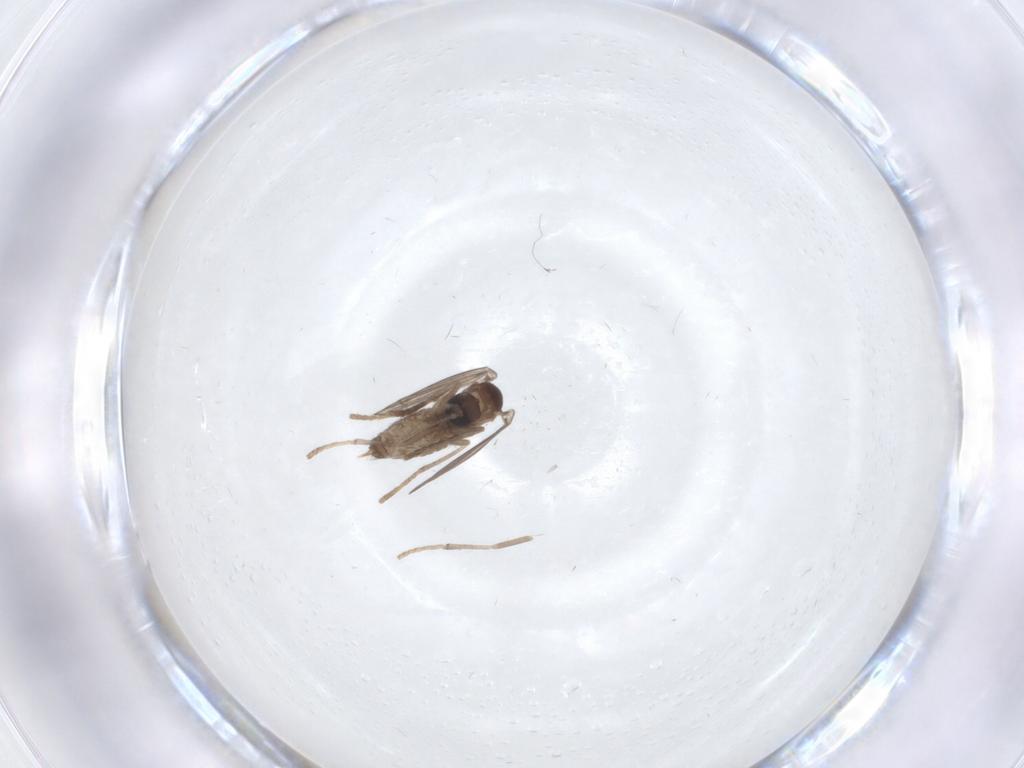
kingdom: Animalia
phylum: Arthropoda
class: Insecta
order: Diptera
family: Psychodidae
